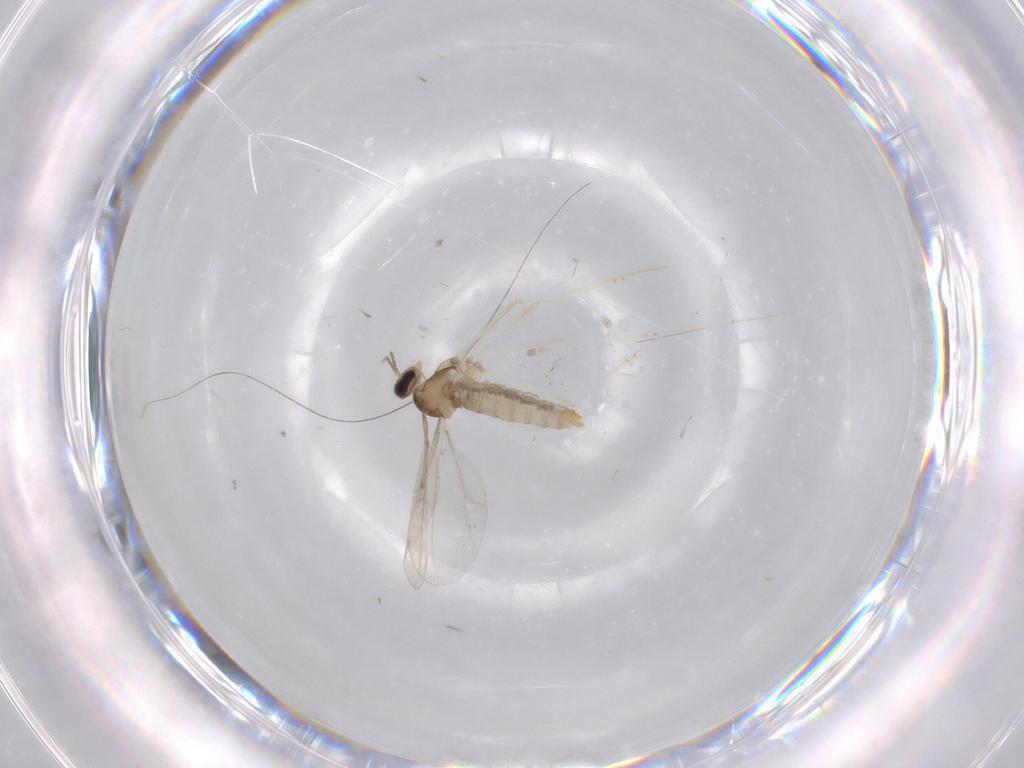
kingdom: Animalia
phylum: Arthropoda
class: Insecta
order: Diptera
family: Cecidomyiidae
